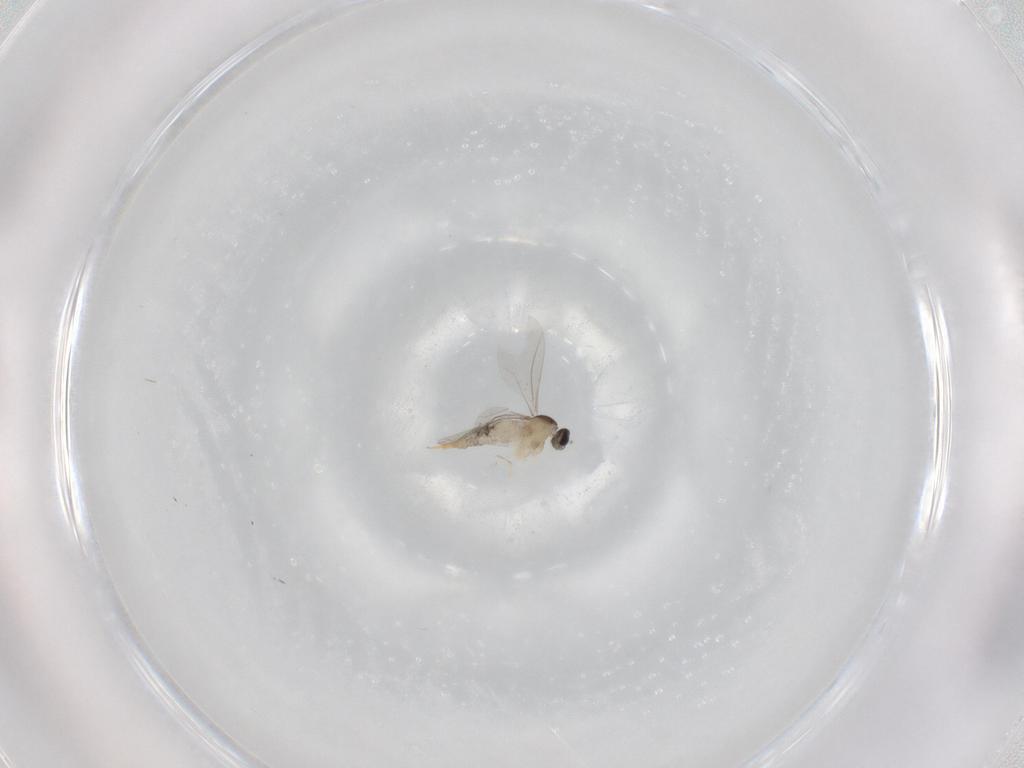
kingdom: Animalia
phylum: Arthropoda
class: Insecta
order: Diptera
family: Cecidomyiidae
